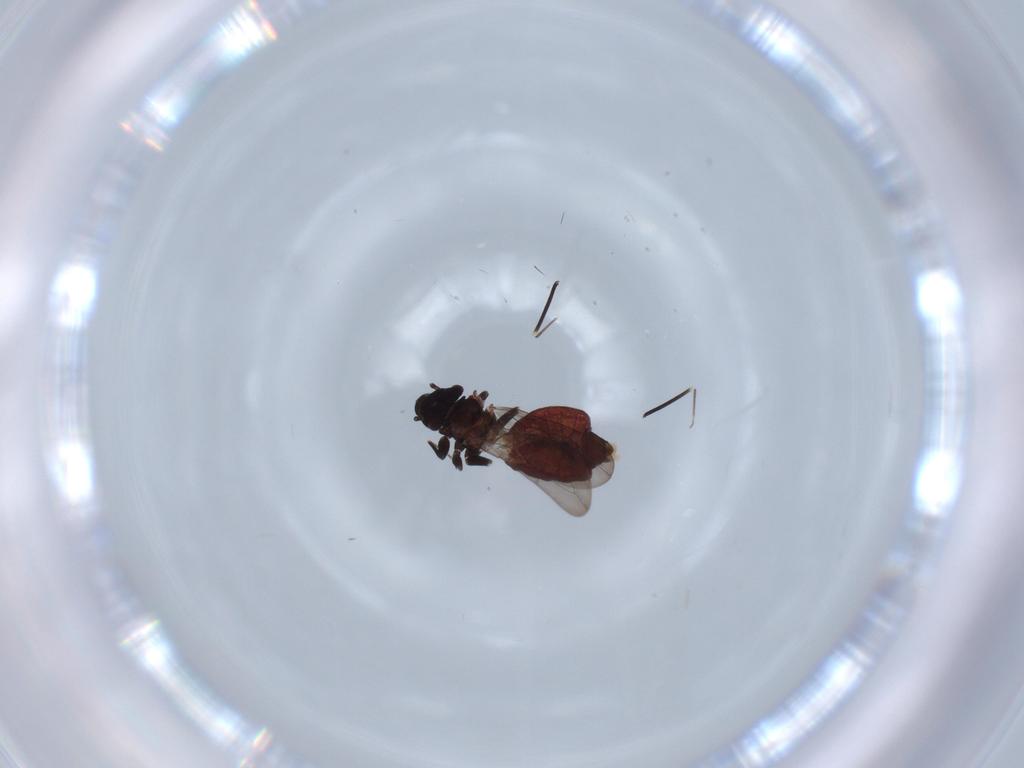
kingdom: Animalia
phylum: Arthropoda
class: Insecta
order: Psocodea
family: Lepidopsocidae
